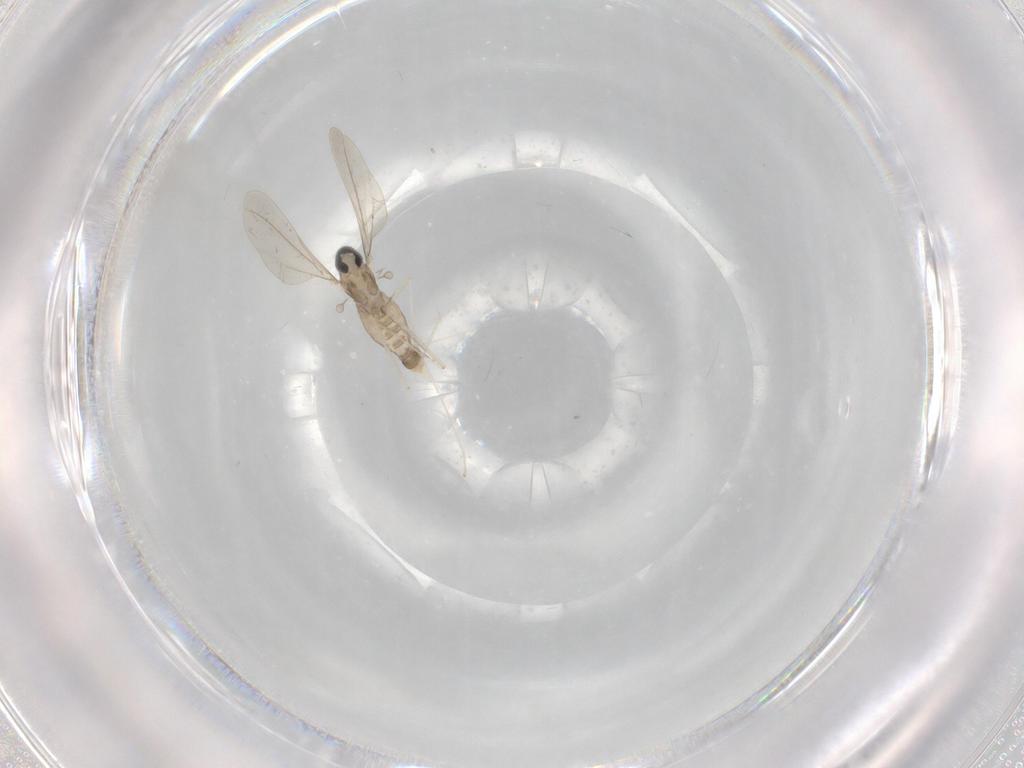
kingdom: Animalia
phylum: Arthropoda
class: Insecta
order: Diptera
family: Cecidomyiidae
